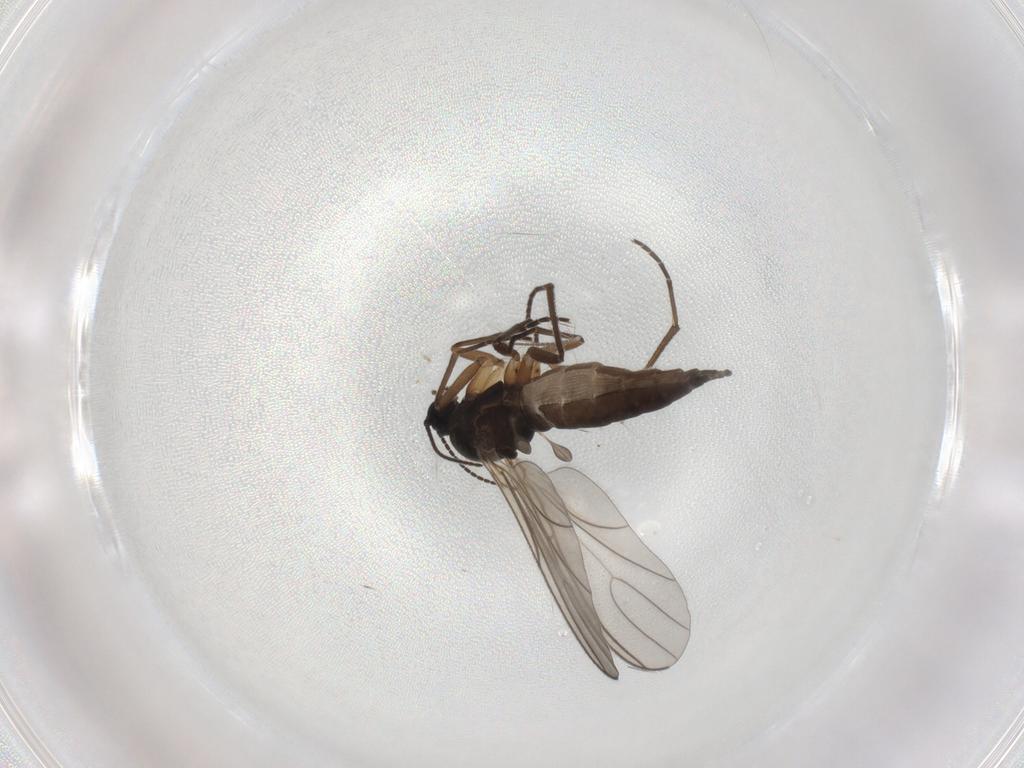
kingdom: Animalia
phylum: Arthropoda
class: Insecta
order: Diptera
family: Sciaridae
